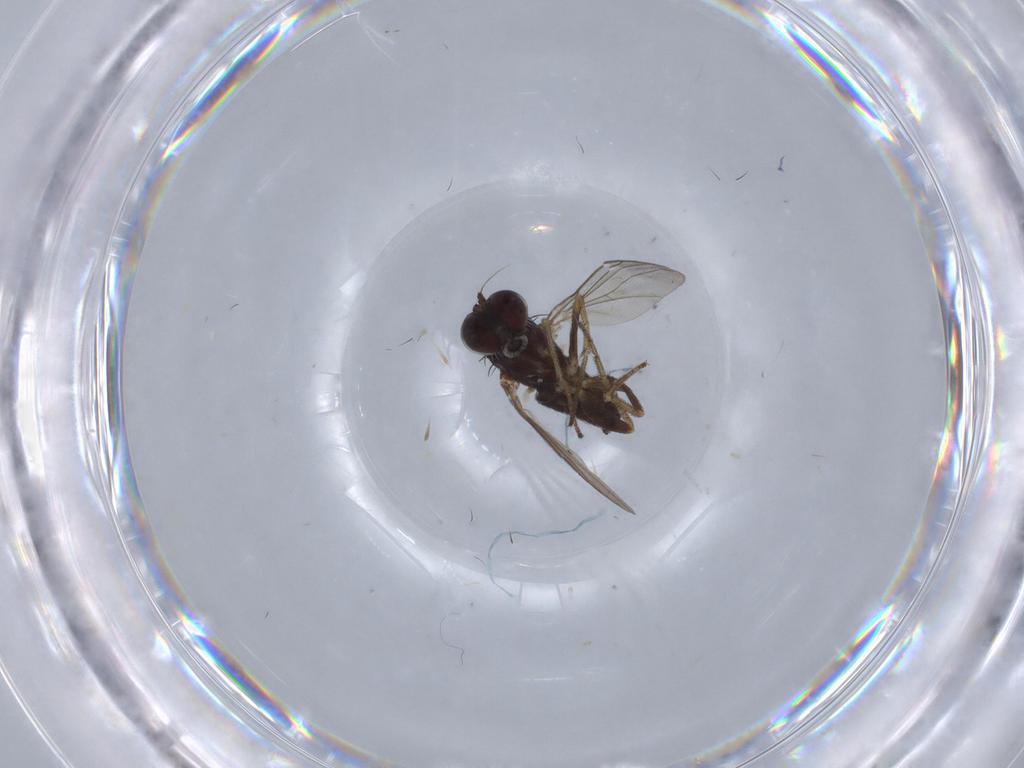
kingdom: Animalia
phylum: Arthropoda
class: Insecta
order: Diptera
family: Dolichopodidae
